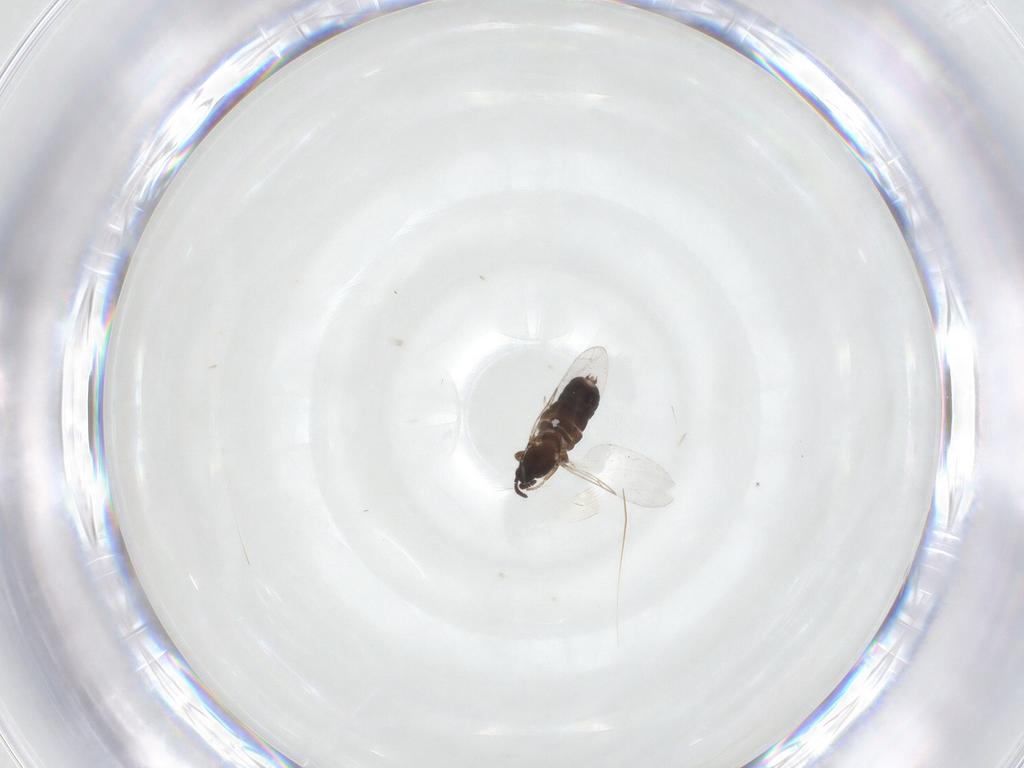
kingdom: Animalia
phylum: Arthropoda
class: Insecta
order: Diptera
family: Scatopsidae
